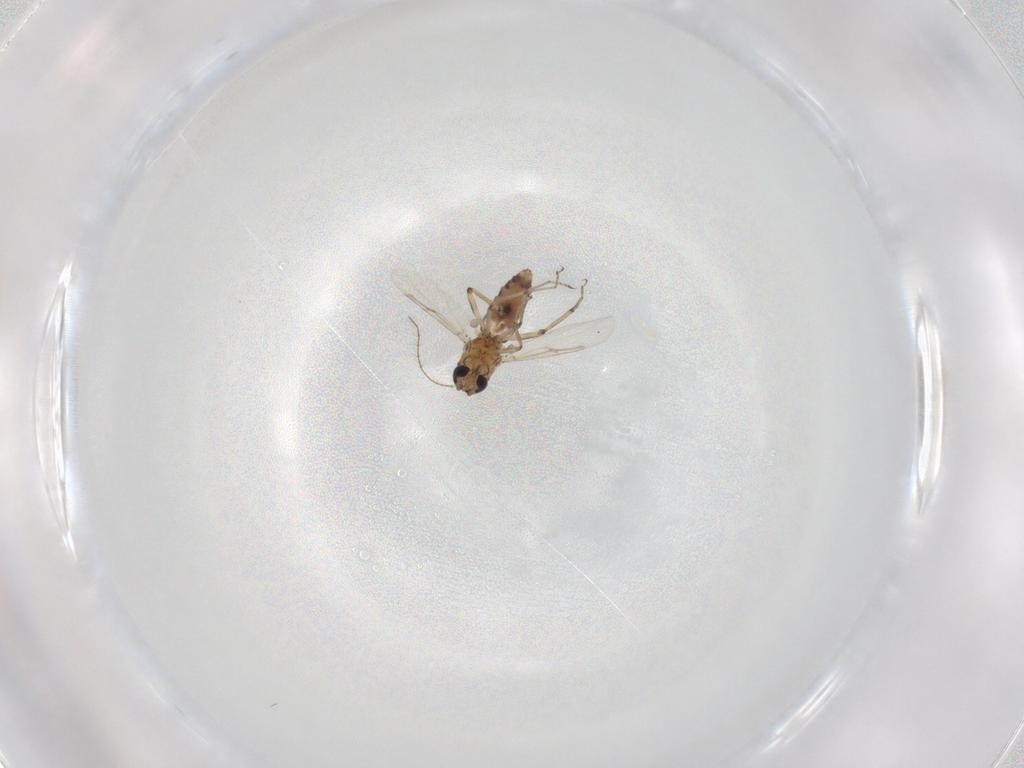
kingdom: Animalia
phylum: Arthropoda
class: Insecta
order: Diptera
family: Ceratopogonidae
